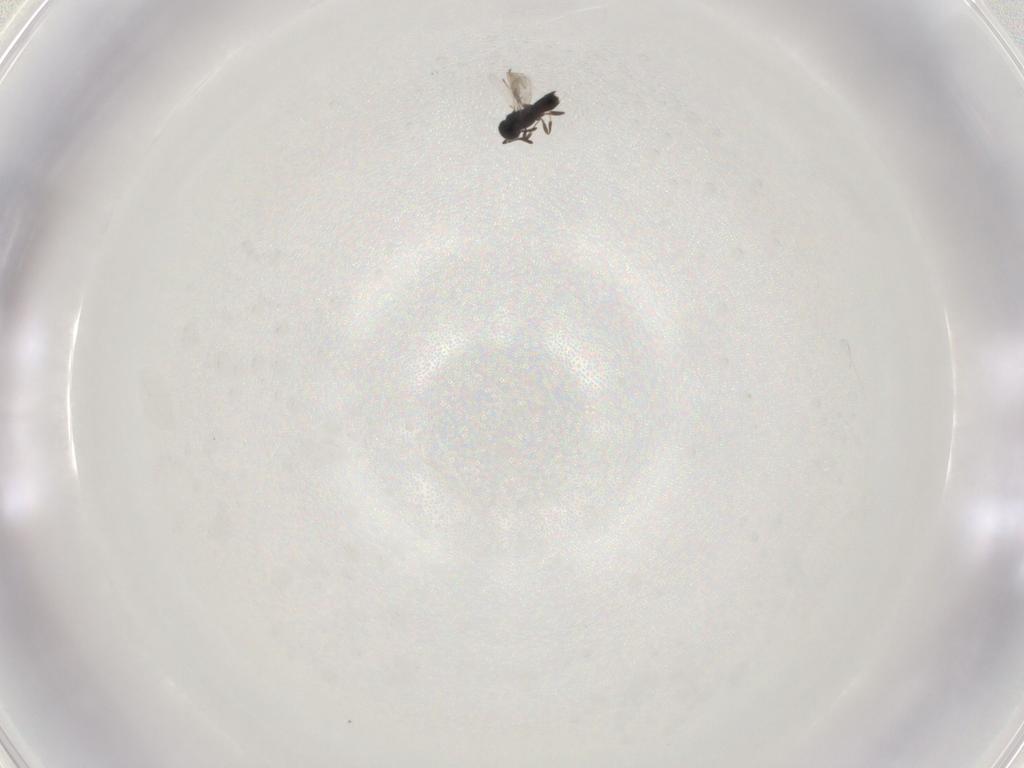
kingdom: Animalia
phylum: Arthropoda
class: Insecta
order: Hymenoptera
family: Scelionidae
